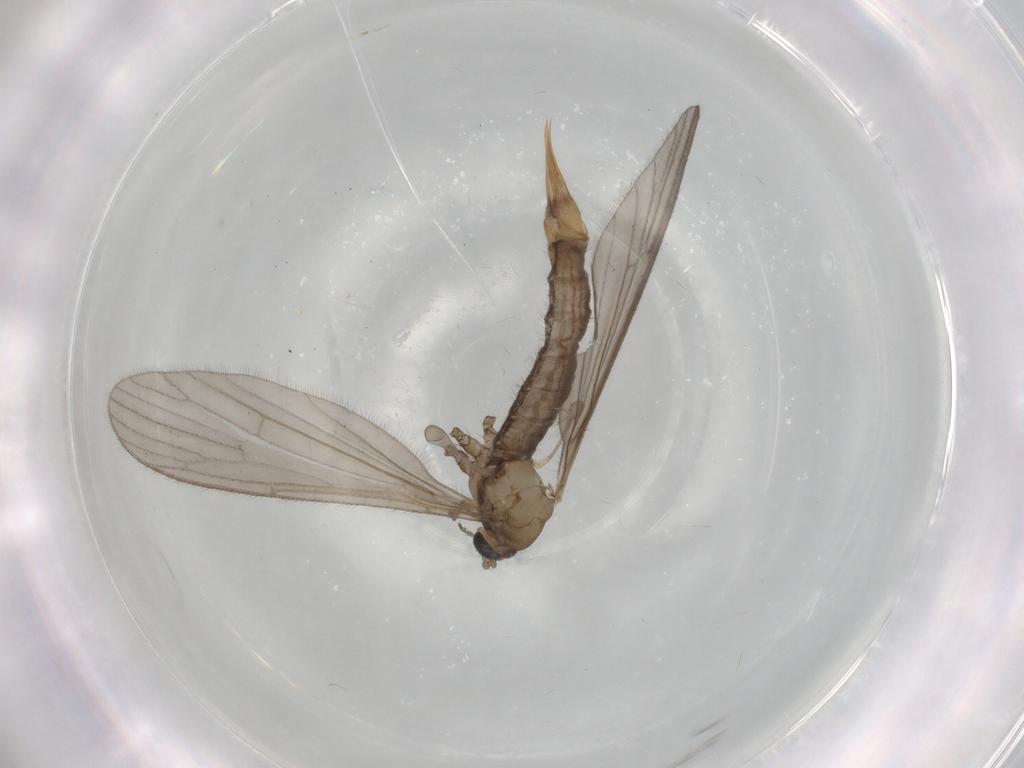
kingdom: Animalia
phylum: Arthropoda
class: Insecta
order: Diptera
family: Limoniidae
